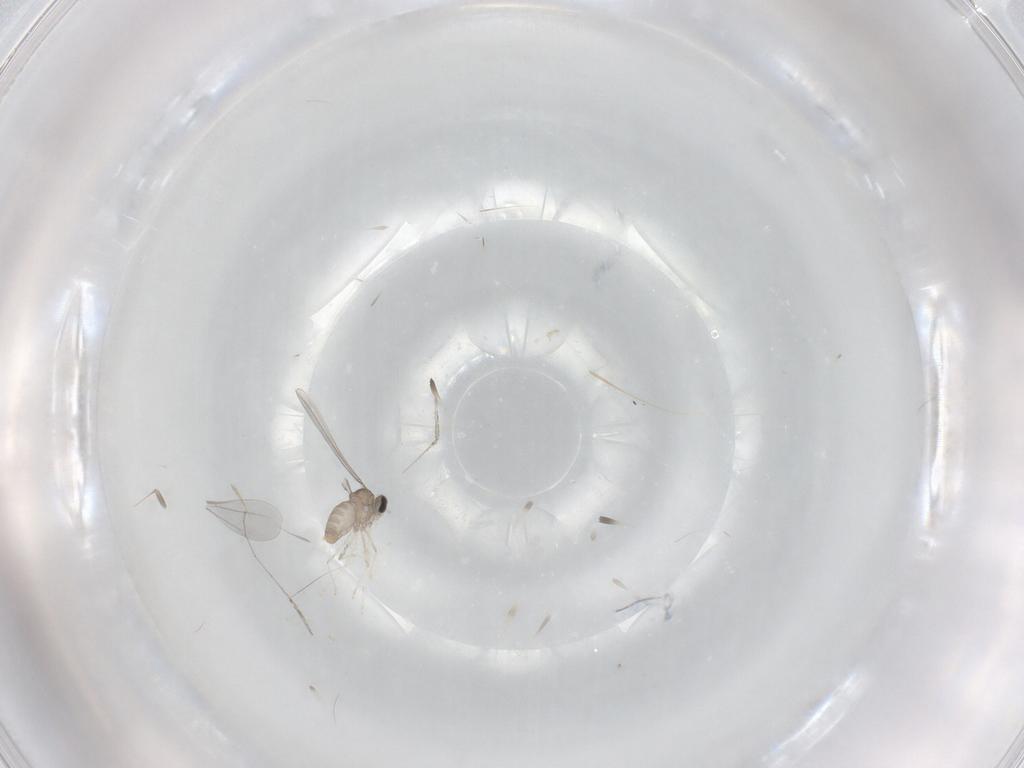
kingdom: Animalia
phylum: Arthropoda
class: Insecta
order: Diptera
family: Cecidomyiidae
